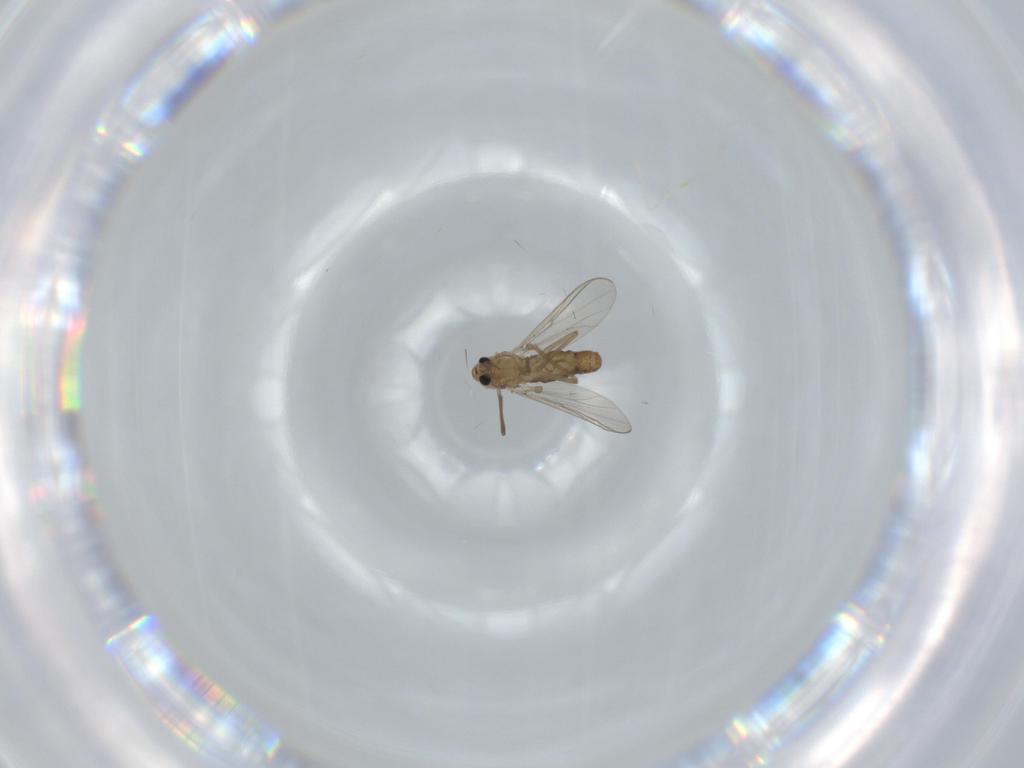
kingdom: Animalia
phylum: Arthropoda
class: Insecta
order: Diptera
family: Chironomidae
